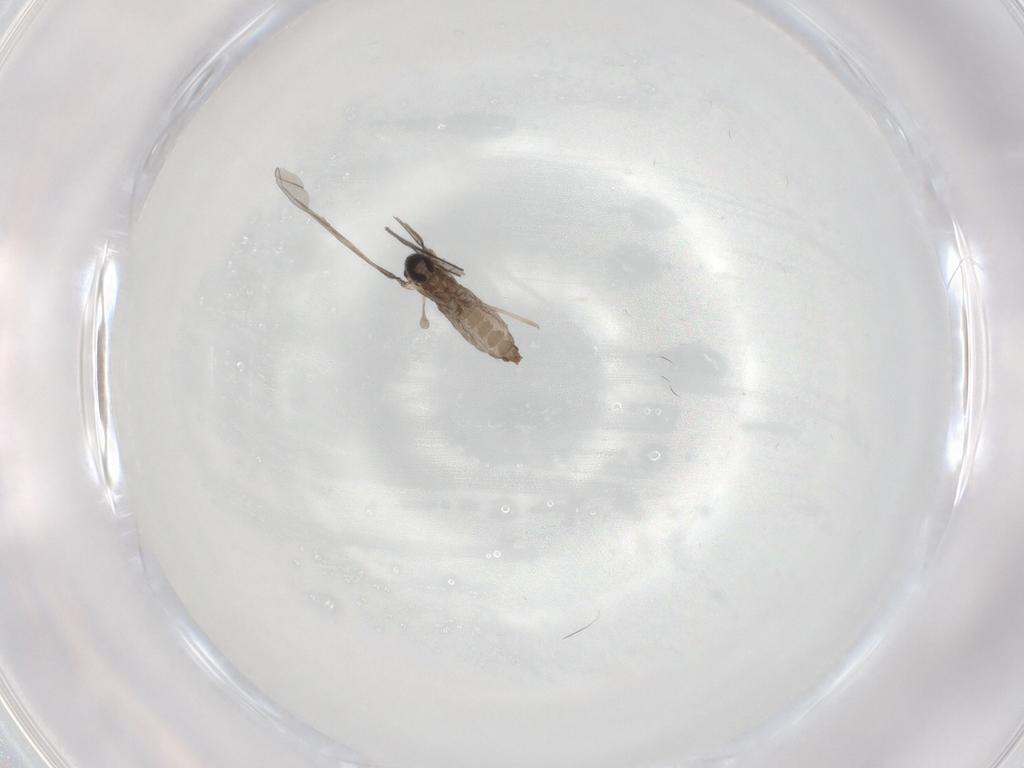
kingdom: Animalia
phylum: Arthropoda
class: Insecta
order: Diptera
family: Cecidomyiidae
